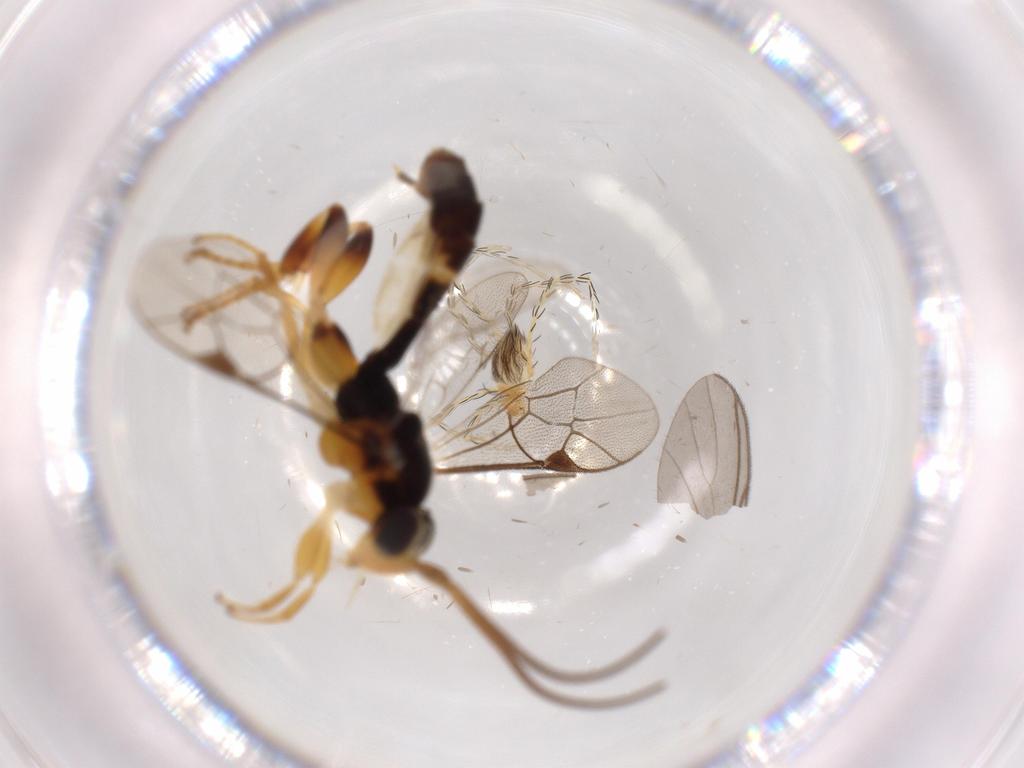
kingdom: Animalia
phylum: Arthropoda
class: Arachnida
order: Trombidiformes
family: Erythraeidae
